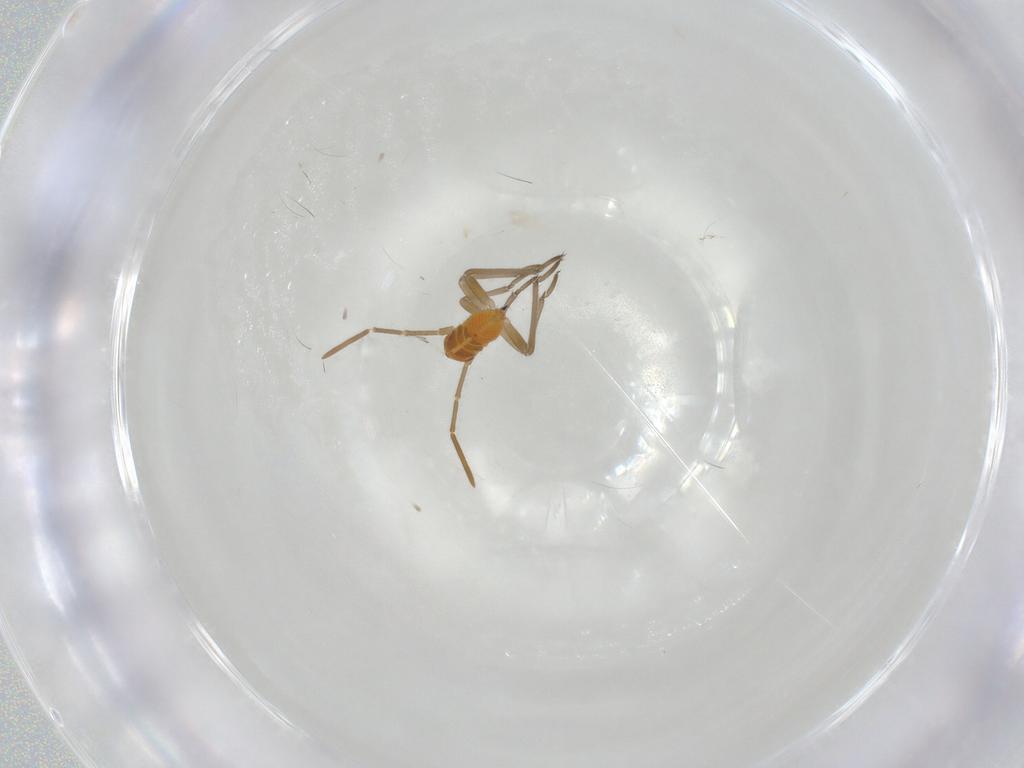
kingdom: Animalia
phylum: Arthropoda
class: Insecta
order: Hemiptera
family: Miridae
